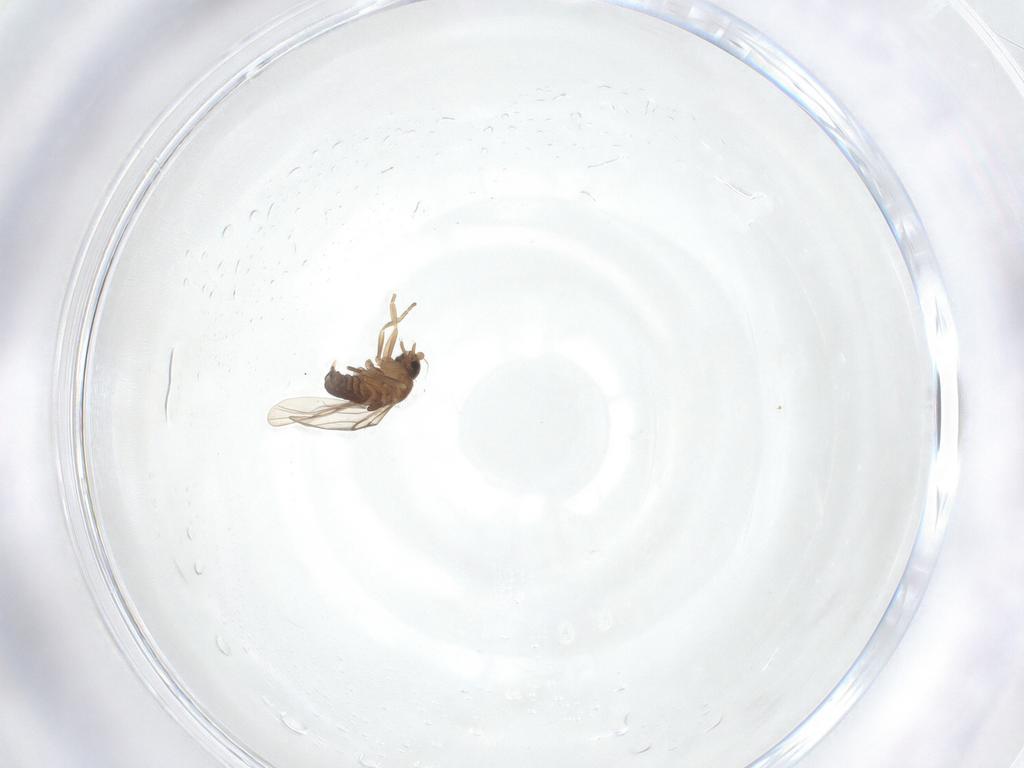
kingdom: Animalia
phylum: Arthropoda
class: Insecta
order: Diptera
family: Phoridae
